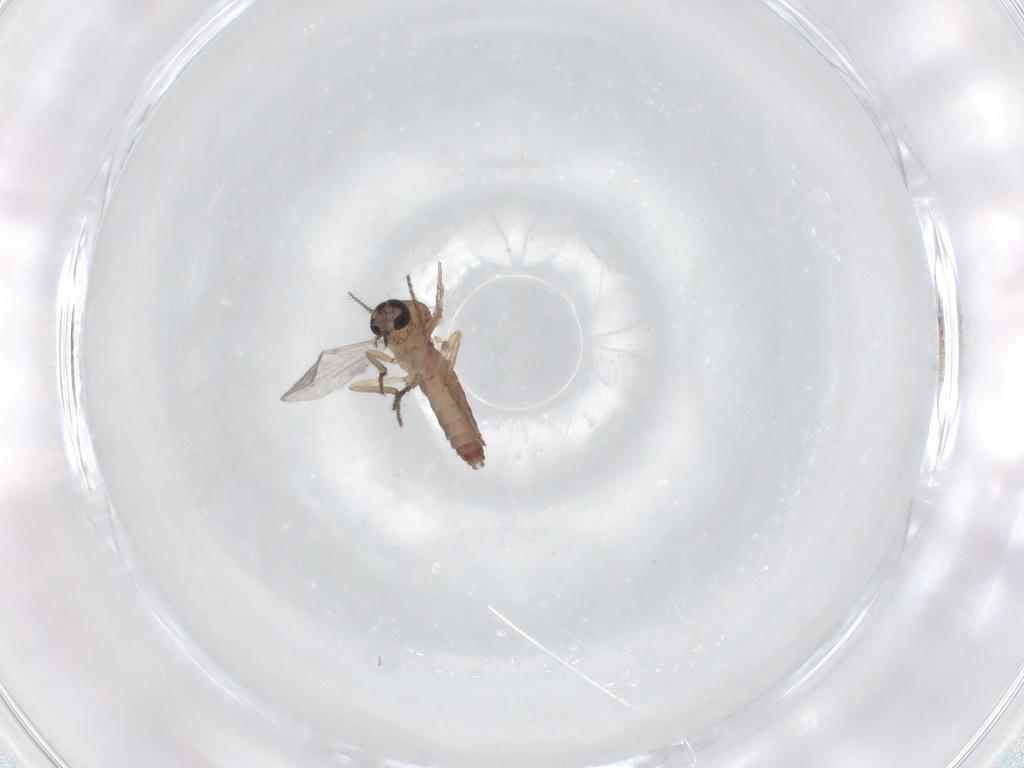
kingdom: Animalia
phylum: Arthropoda
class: Insecta
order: Diptera
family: Ceratopogonidae
